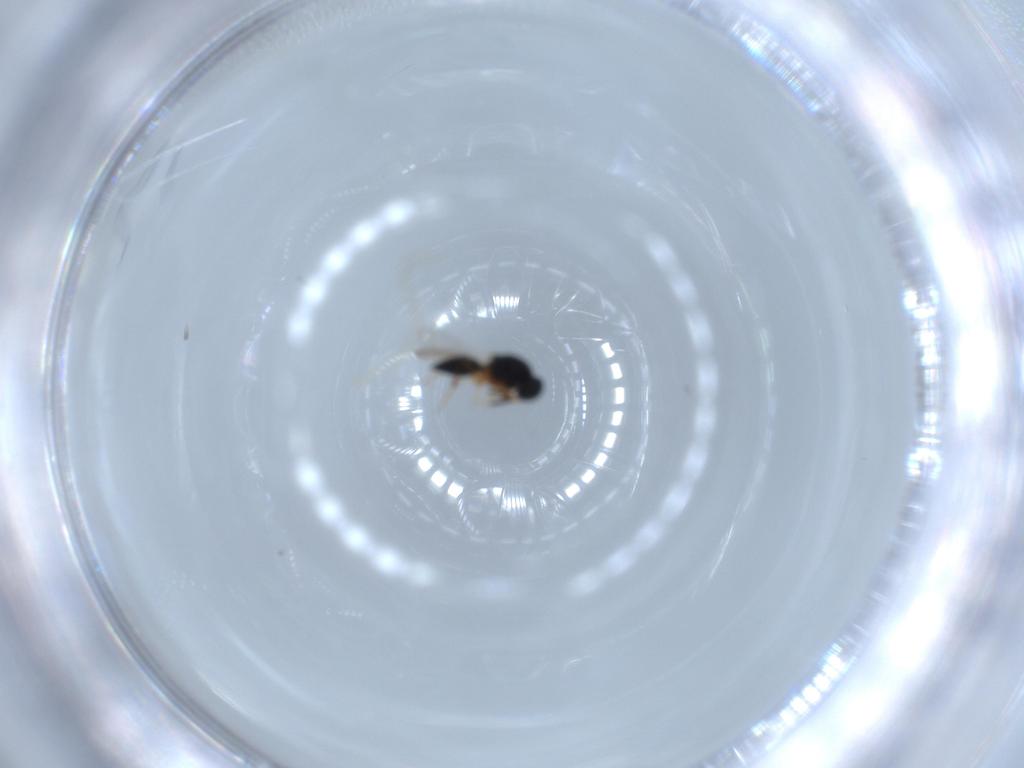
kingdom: Animalia
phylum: Arthropoda
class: Insecta
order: Hymenoptera
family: Platygastridae
